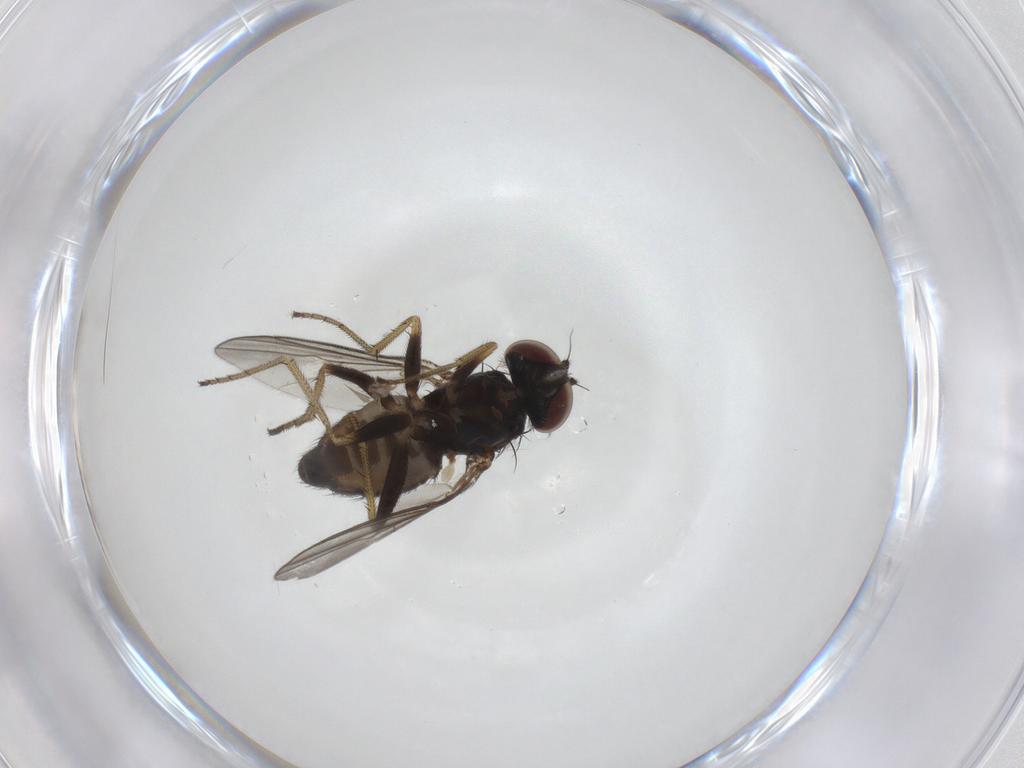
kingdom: Animalia
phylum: Arthropoda
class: Insecta
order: Diptera
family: Dolichopodidae
